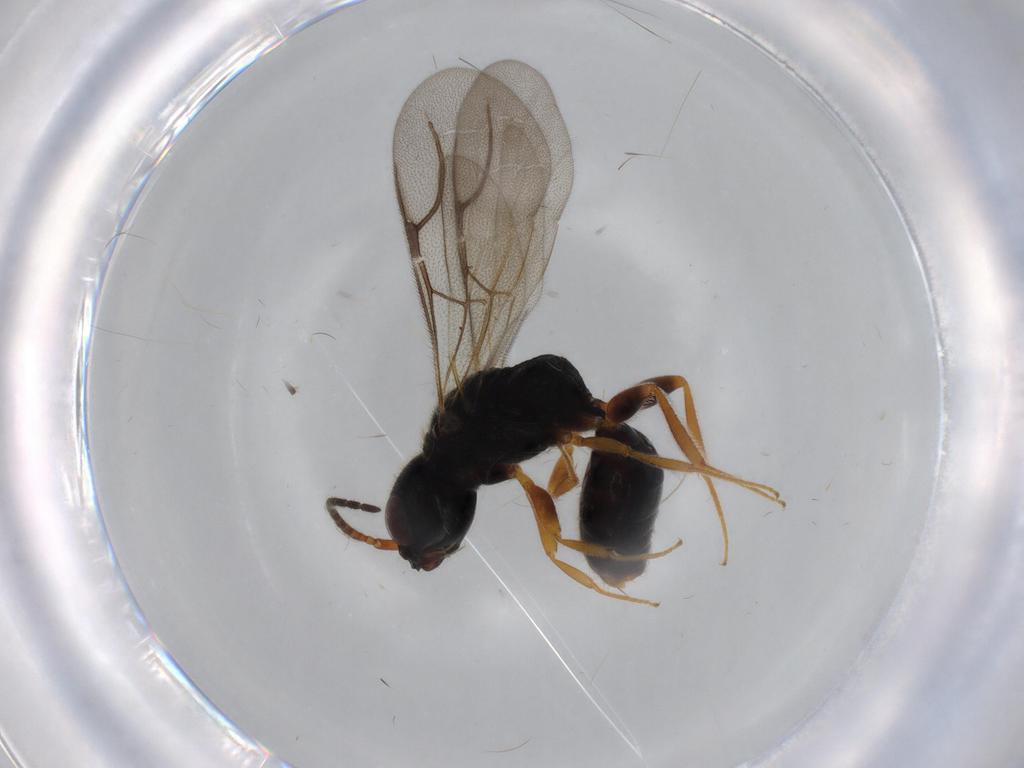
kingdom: Animalia
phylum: Arthropoda
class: Insecta
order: Hymenoptera
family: Bethylidae
